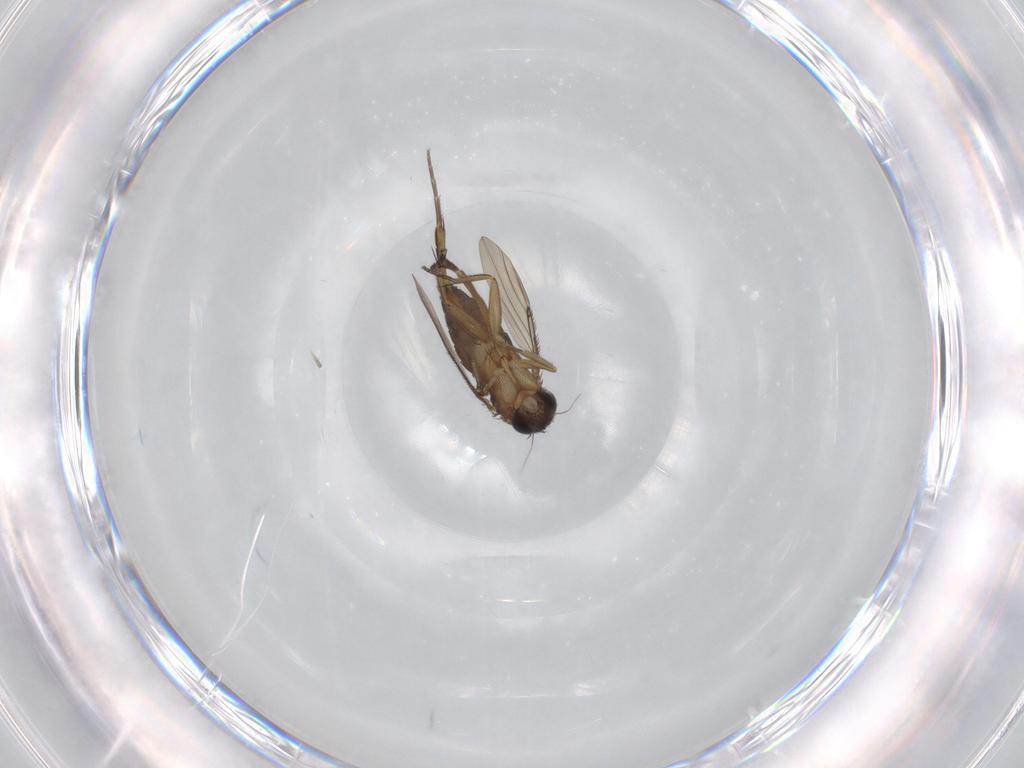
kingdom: Animalia
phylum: Arthropoda
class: Insecta
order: Diptera
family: Phoridae
